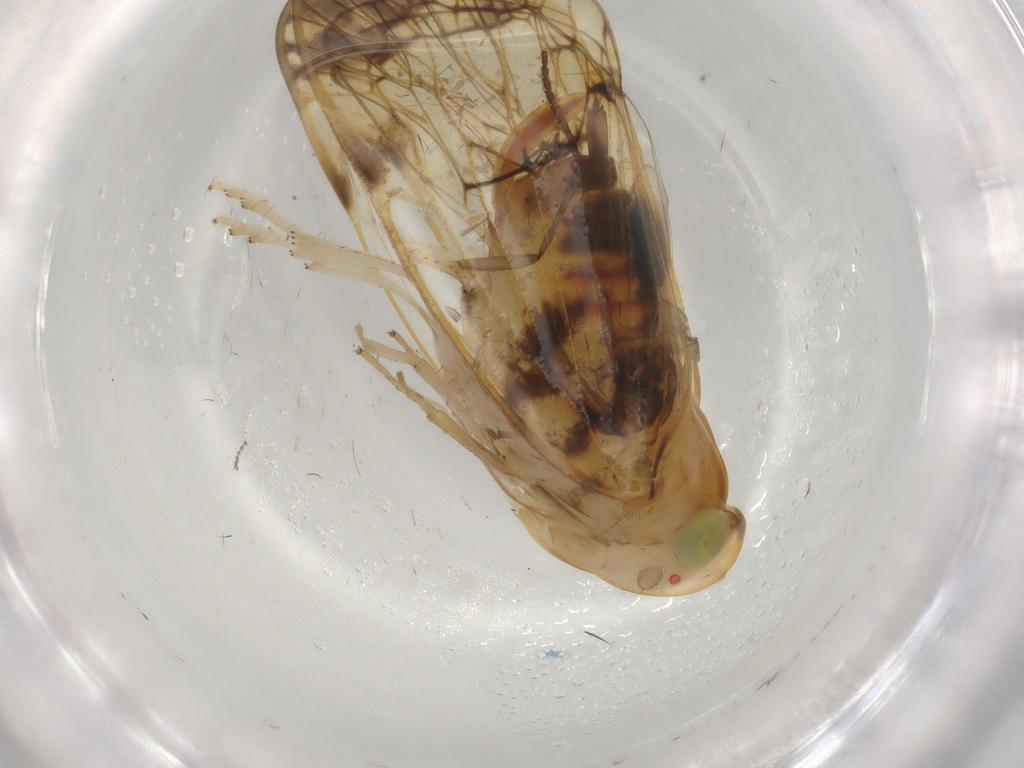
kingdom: Animalia
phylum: Arthropoda
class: Insecta
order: Hemiptera
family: Cixiidae
